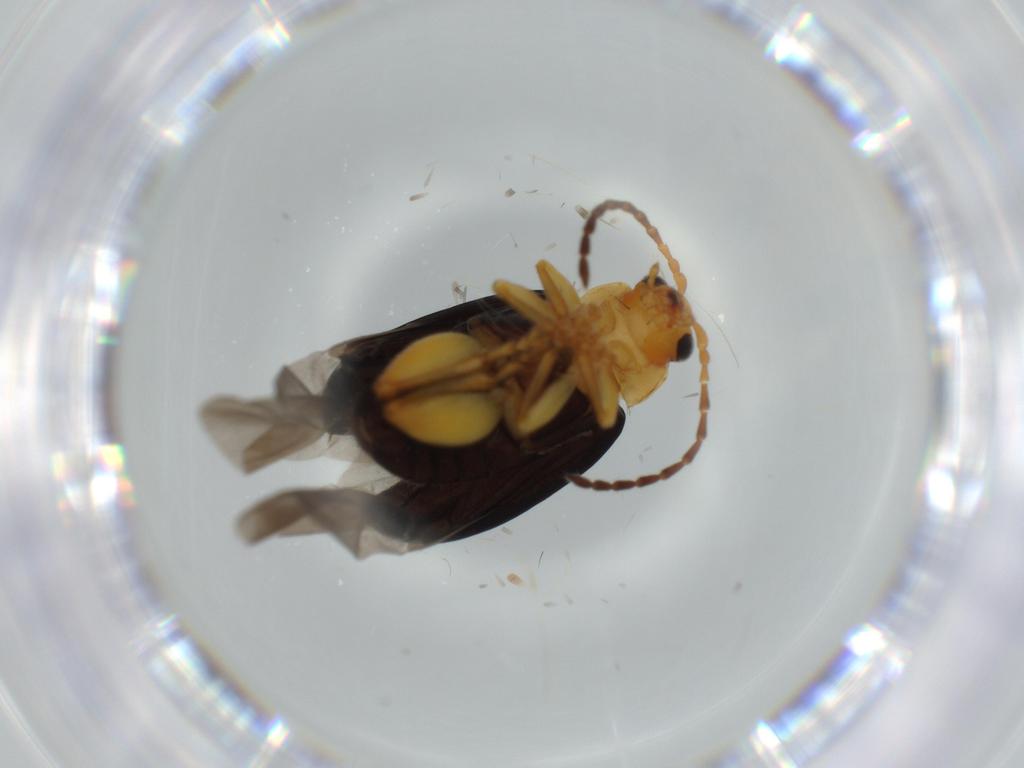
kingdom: Animalia
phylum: Arthropoda
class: Insecta
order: Coleoptera
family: Chrysomelidae
